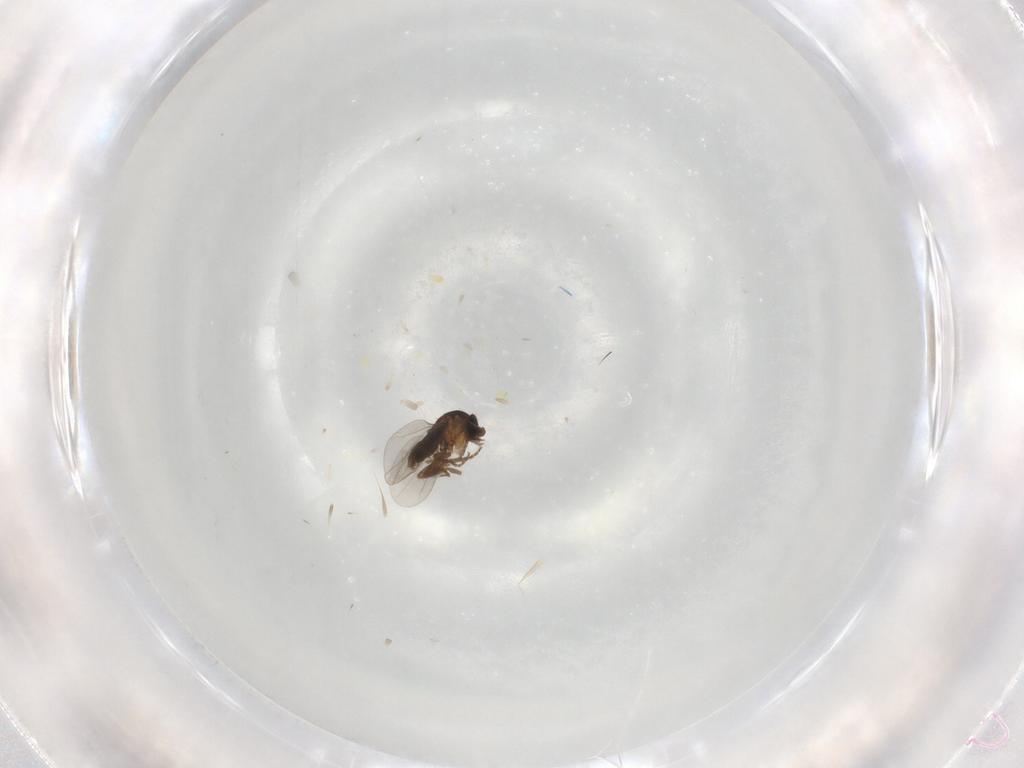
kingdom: Animalia
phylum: Arthropoda
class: Insecta
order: Diptera
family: Phoridae
